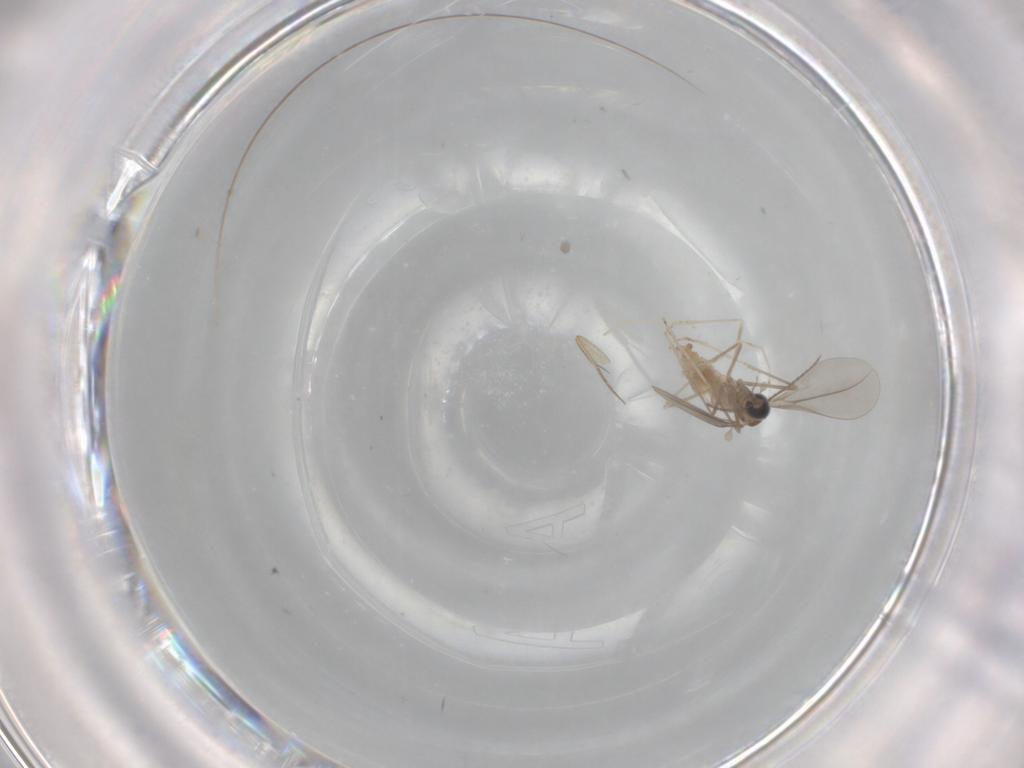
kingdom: Animalia
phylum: Arthropoda
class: Insecta
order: Diptera
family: Cecidomyiidae
